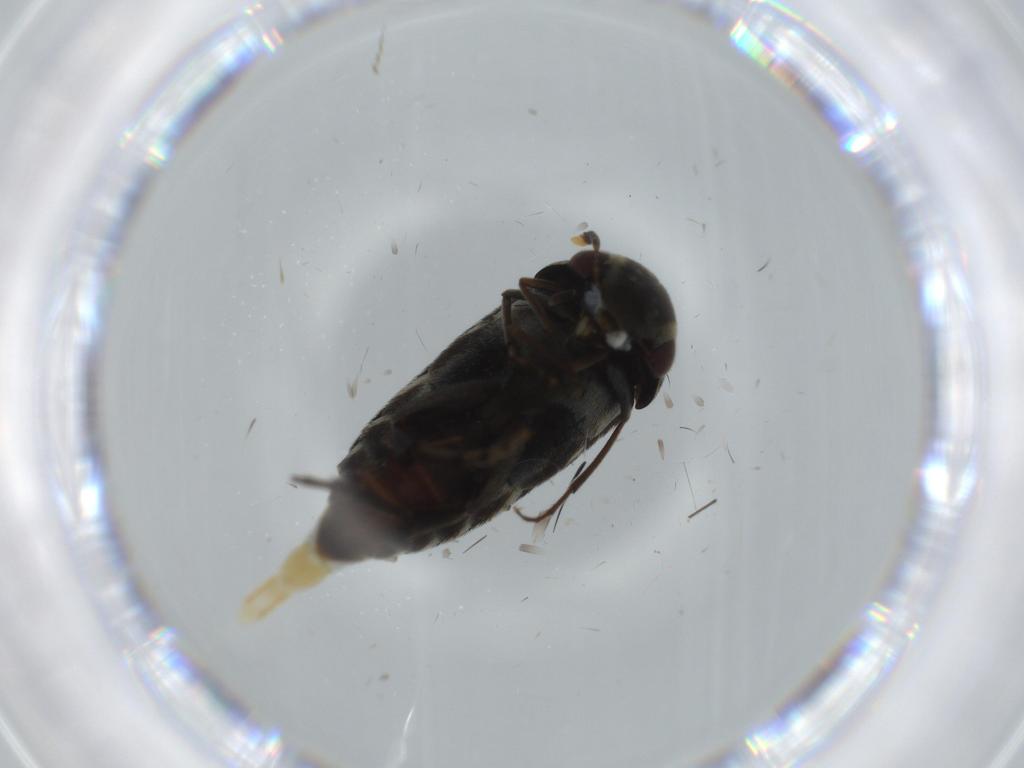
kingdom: Animalia
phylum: Arthropoda
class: Insecta
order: Coleoptera
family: Mordellidae
